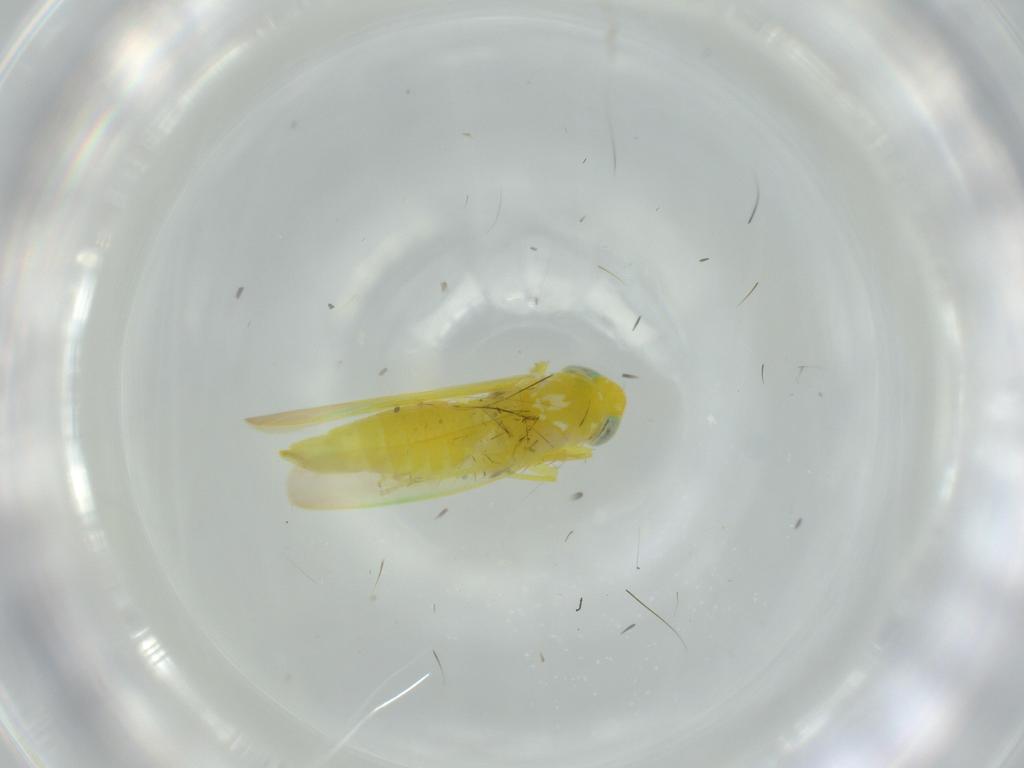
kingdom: Animalia
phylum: Arthropoda
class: Insecta
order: Hemiptera
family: Cicadellidae
